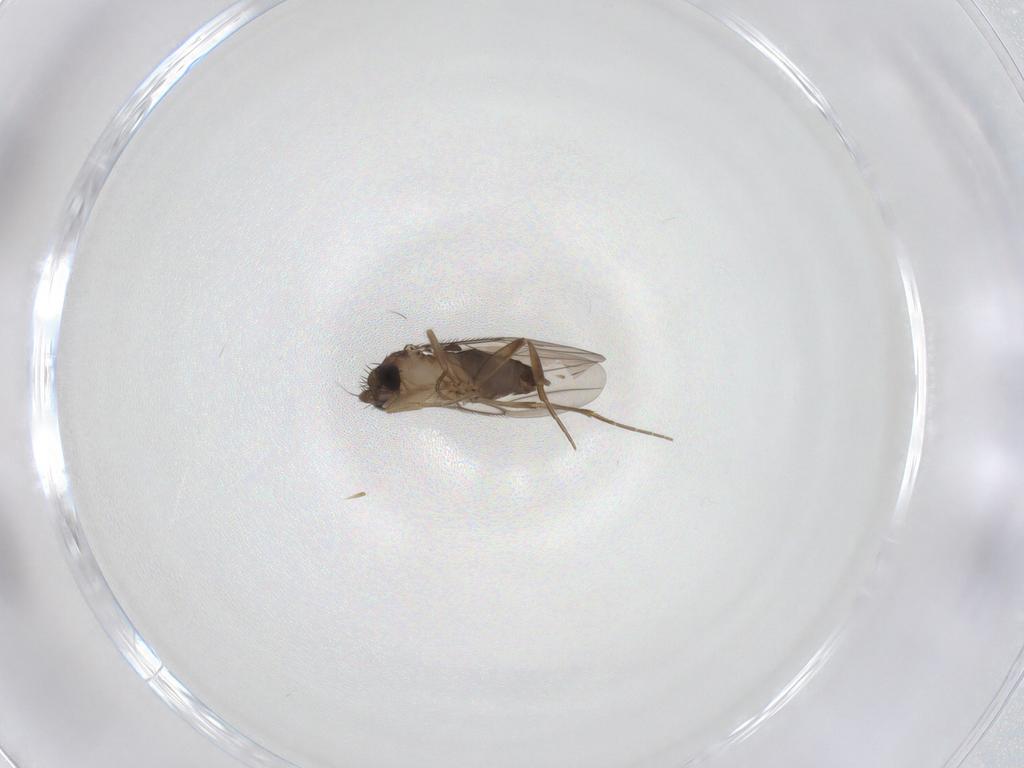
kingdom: Animalia
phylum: Arthropoda
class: Insecta
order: Diptera
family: Phoridae
